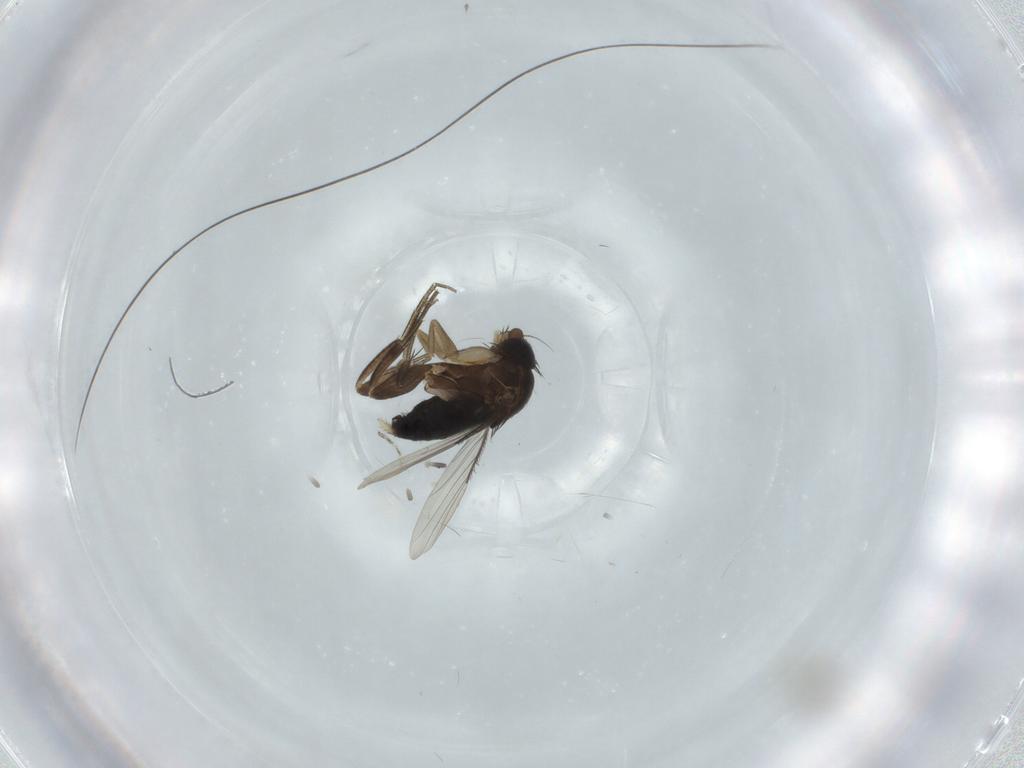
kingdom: Animalia
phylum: Arthropoda
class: Insecta
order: Diptera
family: Phoridae
